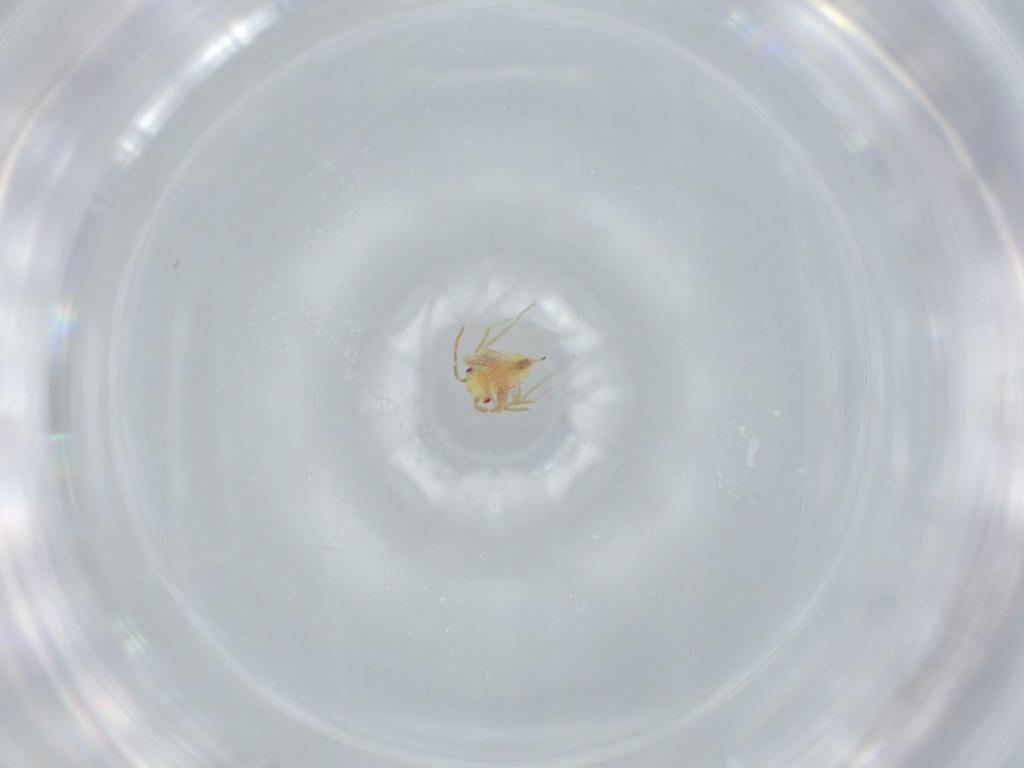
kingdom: Animalia
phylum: Arthropoda
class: Insecta
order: Hemiptera
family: Miridae
